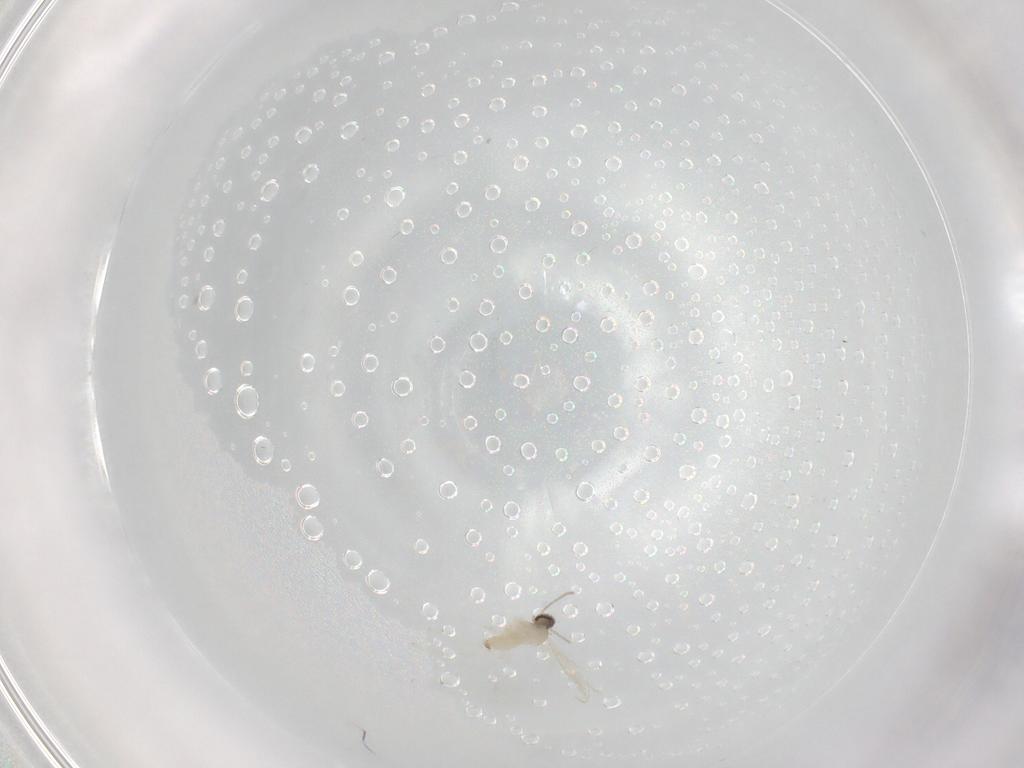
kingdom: Animalia
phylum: Arthropoda
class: Insecta
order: Diptera
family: Cecidomyiidae
